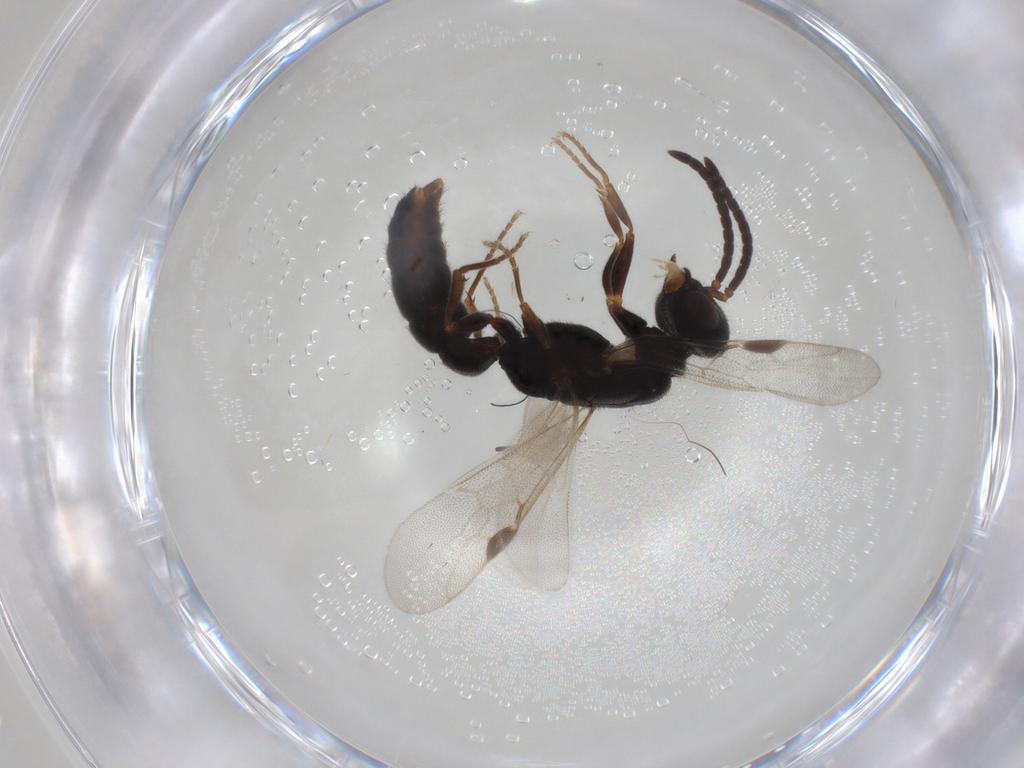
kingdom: Animalia
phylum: Arthropoda
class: Insecta
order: Hymenoptera
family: Formicidae
